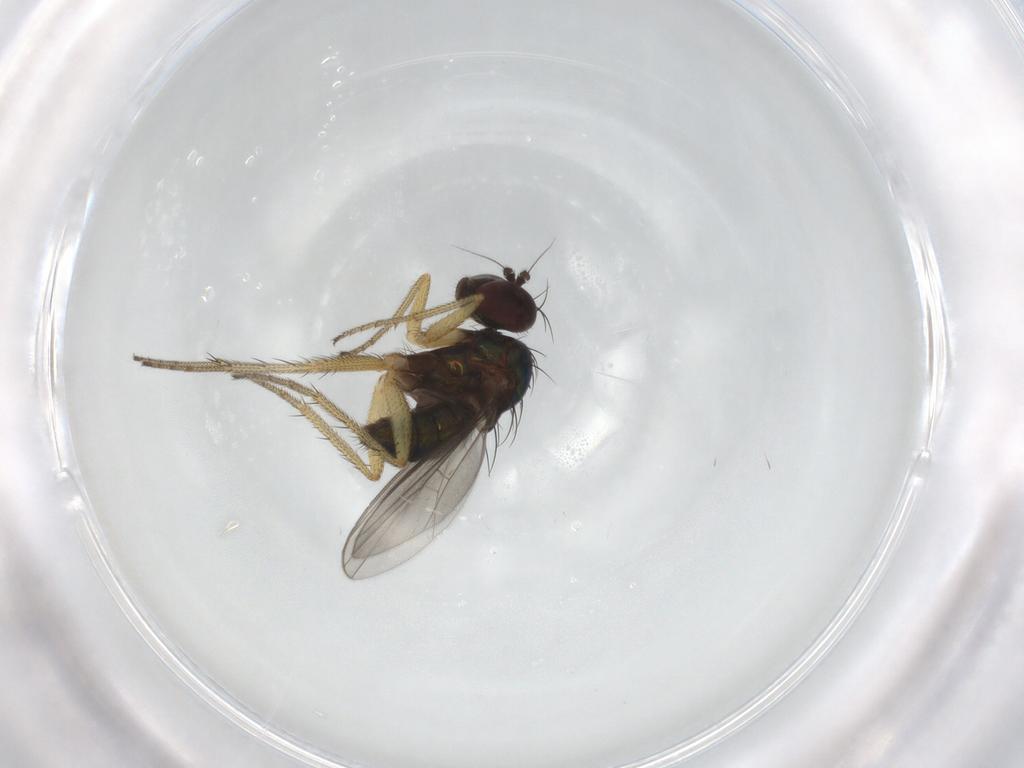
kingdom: Animalia
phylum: Arthropoda
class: Insecta
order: Diptera
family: Dolichopodidae
